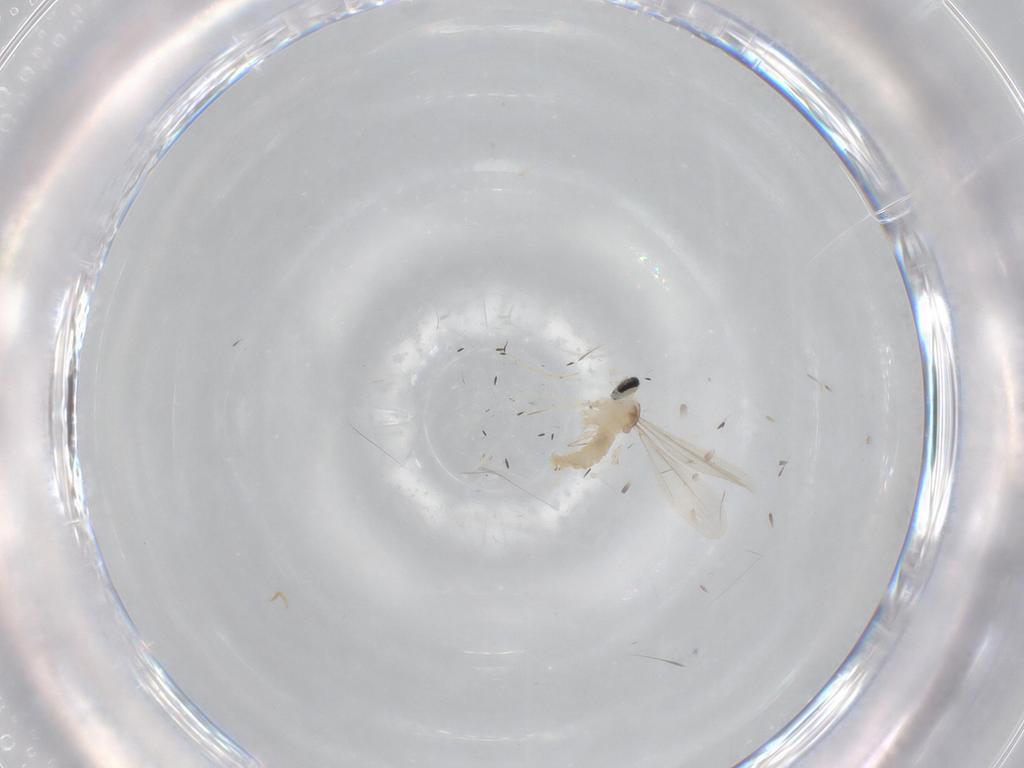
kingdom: Animalia
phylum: Arthropoda
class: Insecta
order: Diptera
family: Cecidomyiidae
